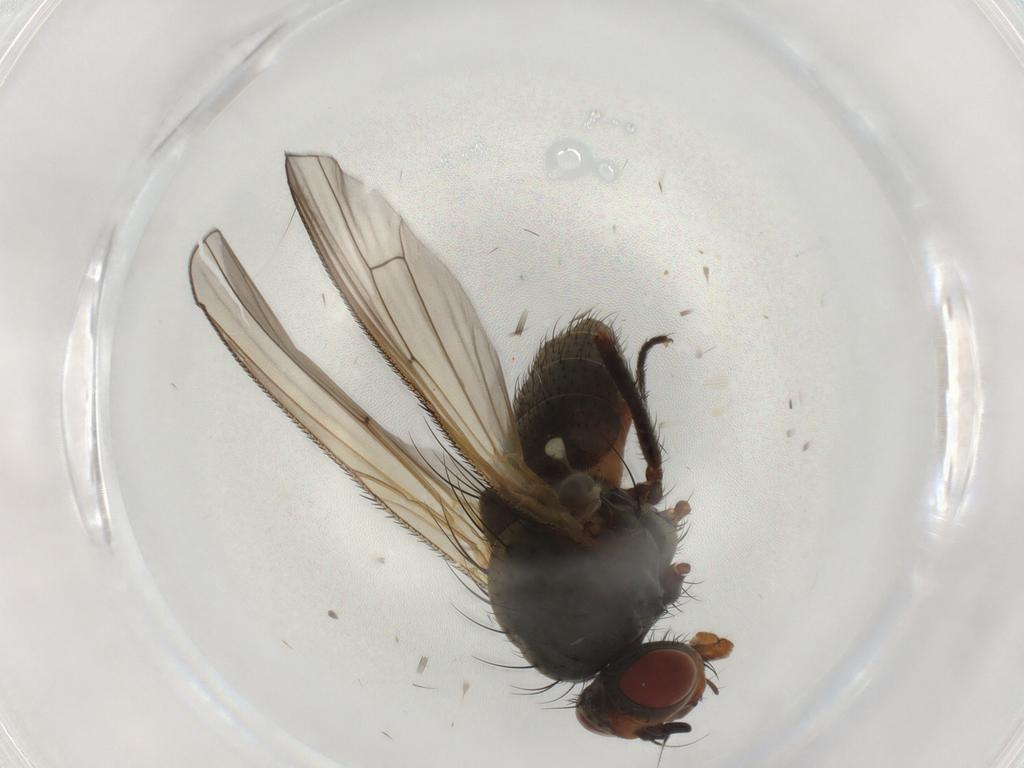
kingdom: Animalia
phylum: Arthropoda
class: Insecta
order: Diptera
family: Anthomyiidae
